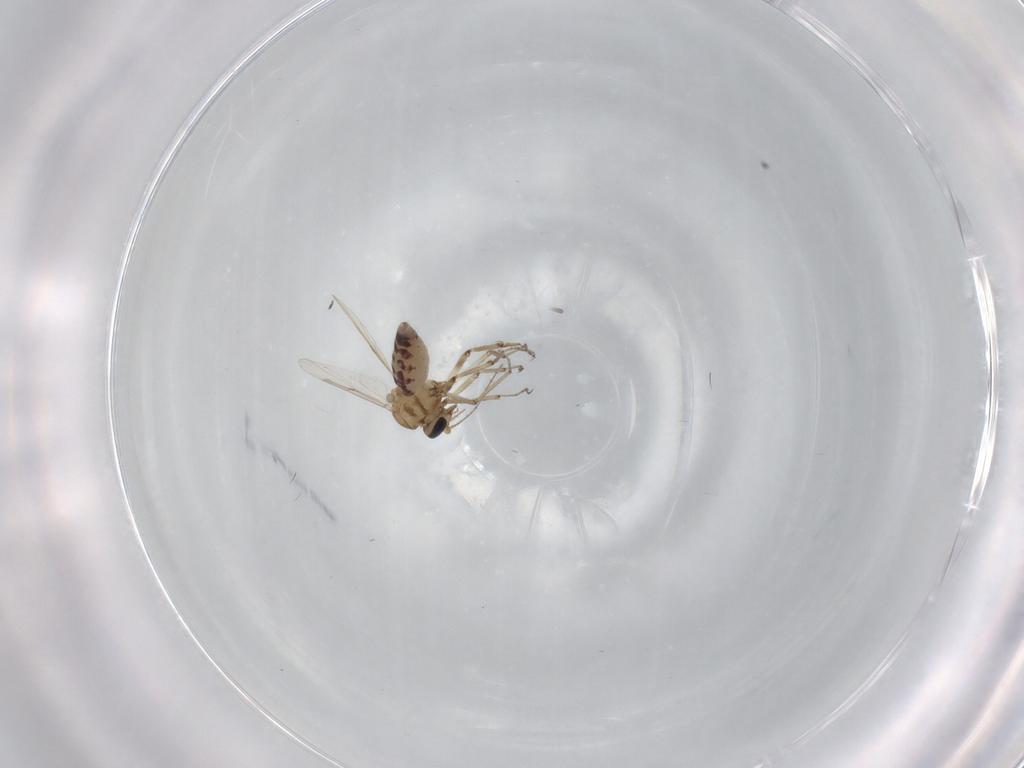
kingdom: Animalia
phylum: Arthropoda
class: Insecta
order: Diptera
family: Ceratopogonidae
